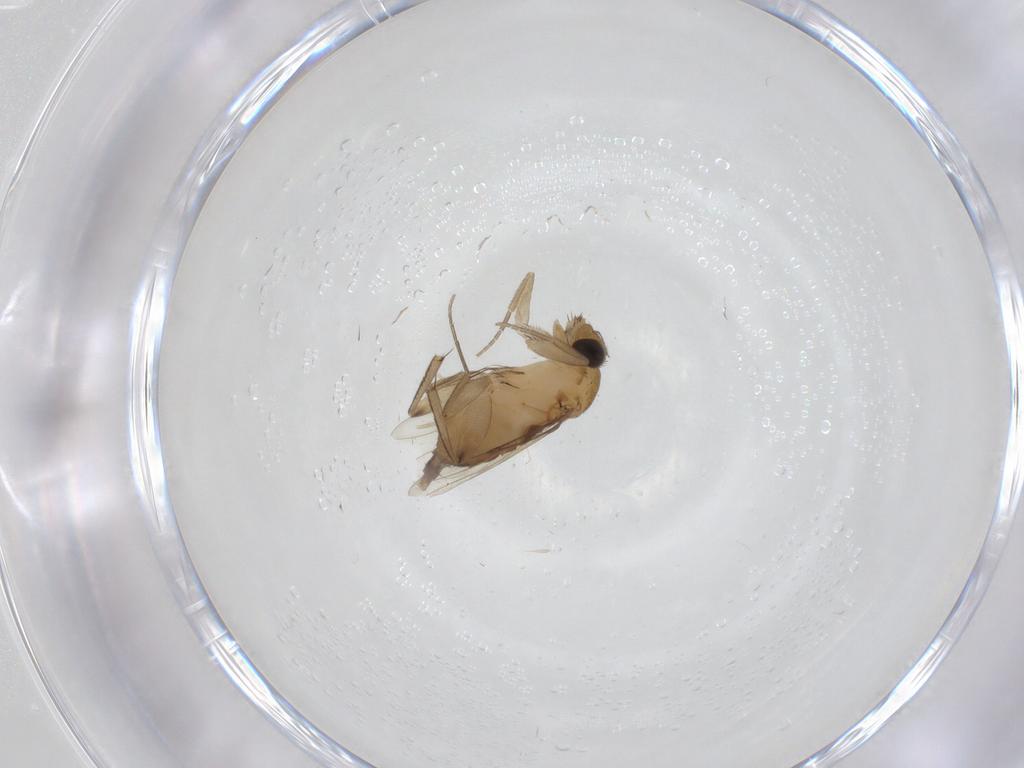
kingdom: Animalia
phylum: Arthropoda
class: Insecta
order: Diptera
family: Phoridae
